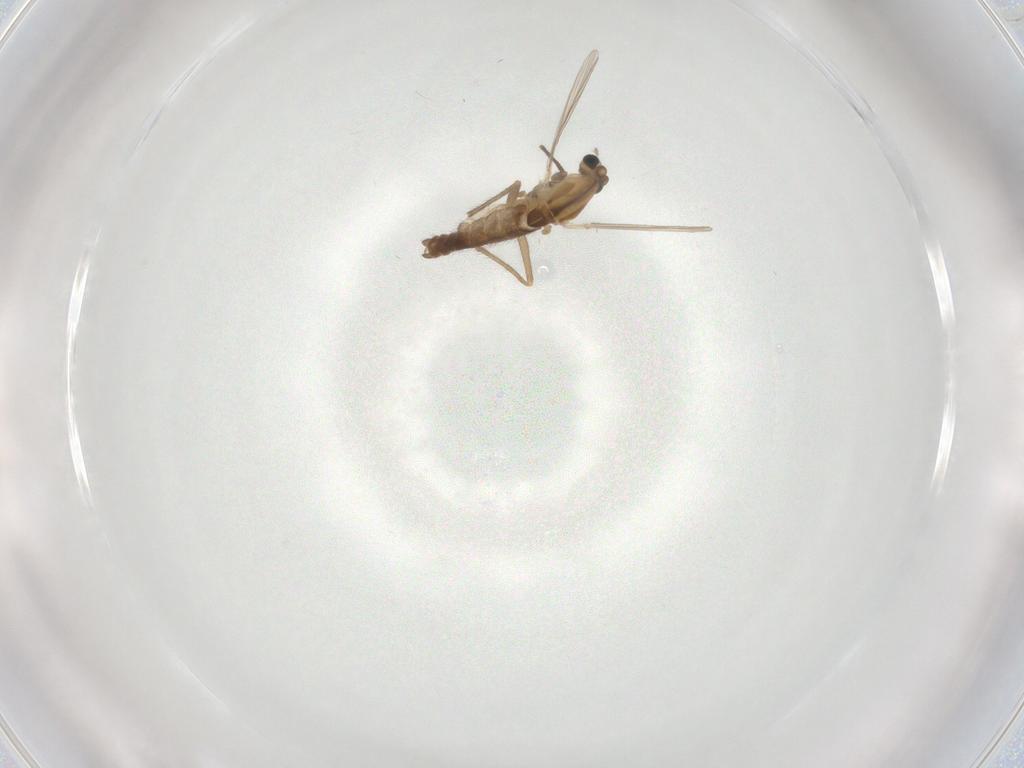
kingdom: Animalia
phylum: Arthropoda
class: Insecta
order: Diptera
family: Chironomidae
